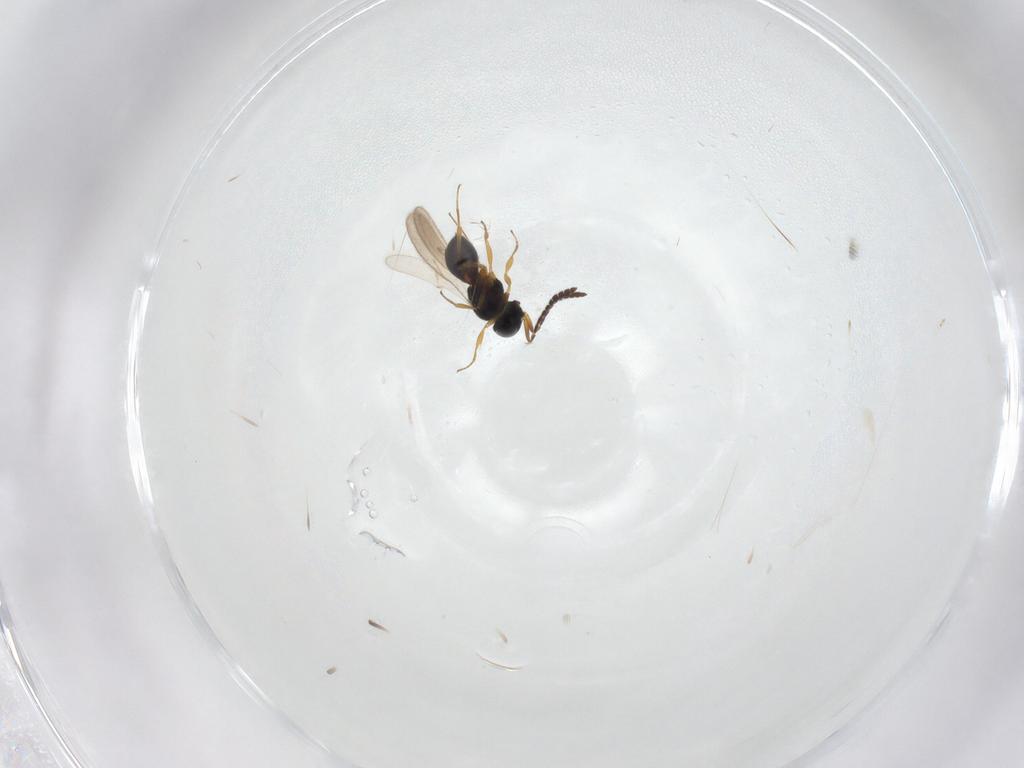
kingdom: Animalia
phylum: Arthropoda
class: Insecta
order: Hymenoptera
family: Scelionidae
